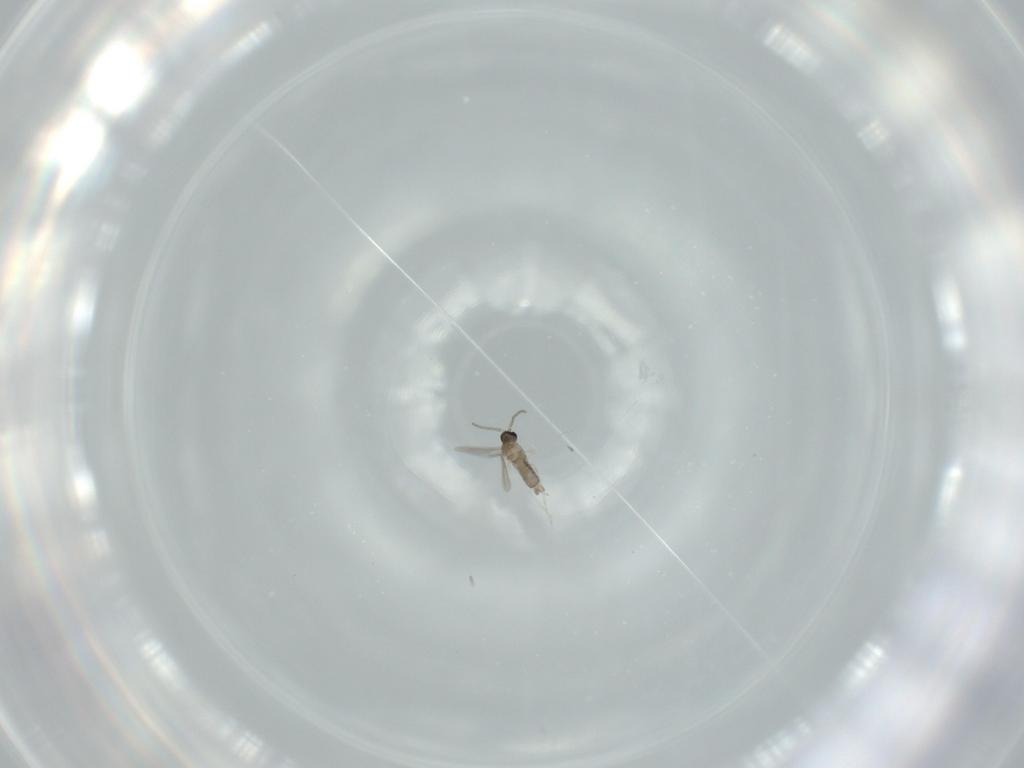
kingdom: Animalia
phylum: Arthropoda
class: Insecta
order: Diptera
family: Cecidomyiidae
